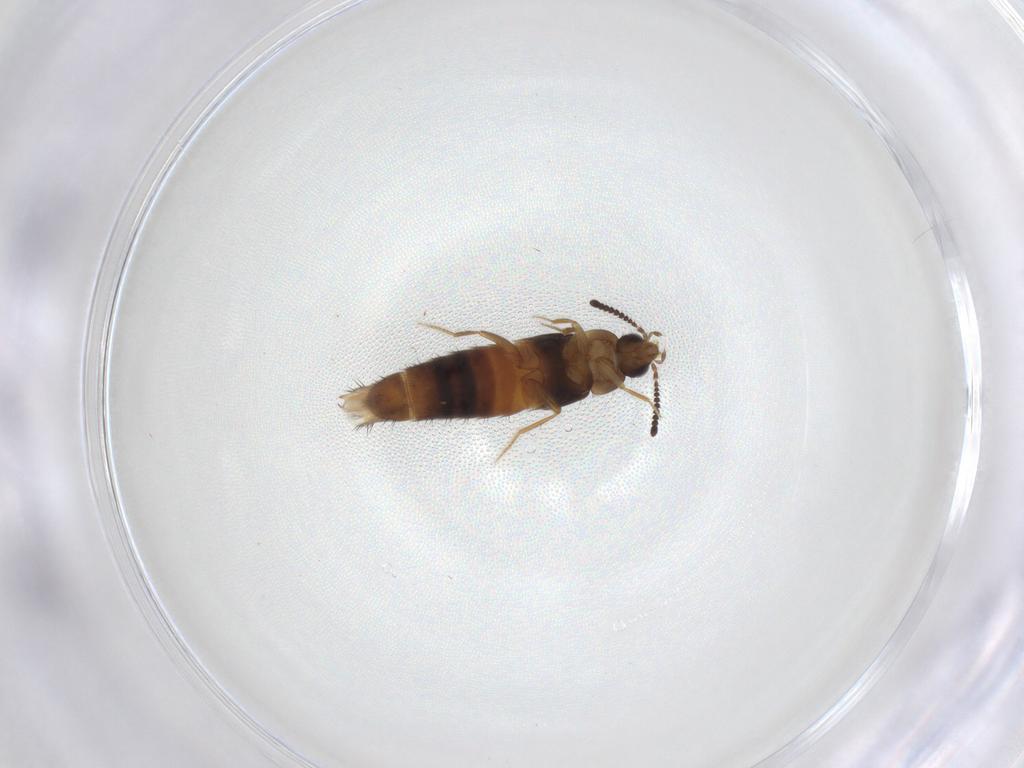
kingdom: Animalia
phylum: Arthropoda
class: Insecta
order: Coleoptera
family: Staphylinidae
